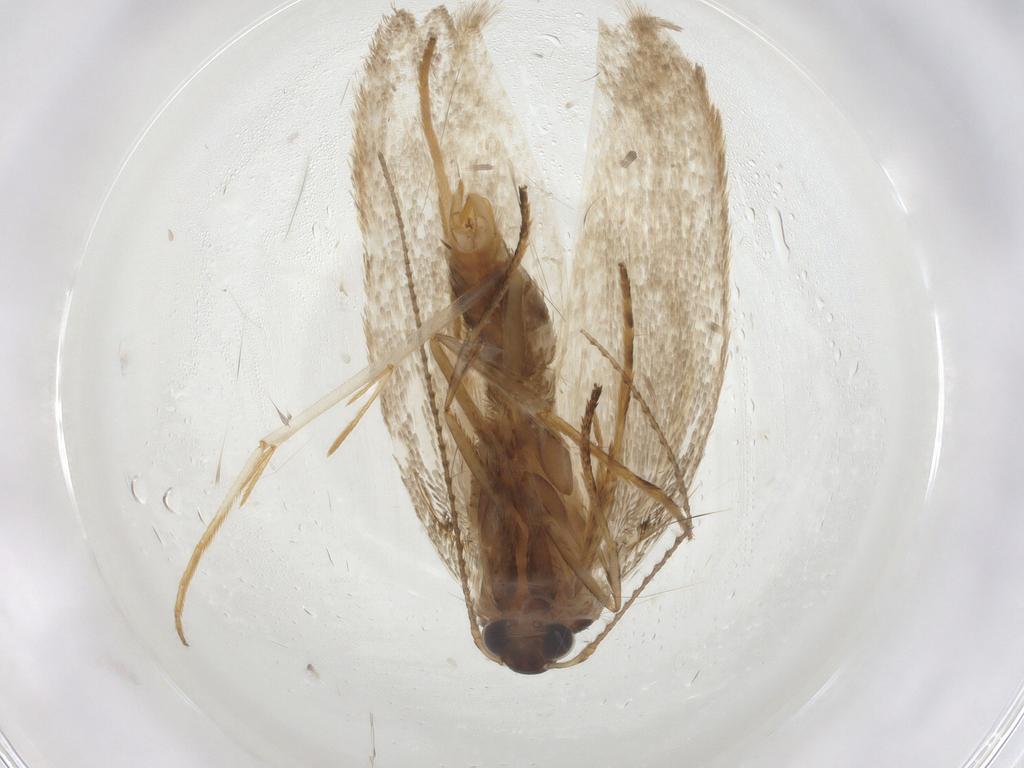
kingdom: Animalia
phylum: Arthropoda
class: Insecta
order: Lepidoptera
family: Erebidae
